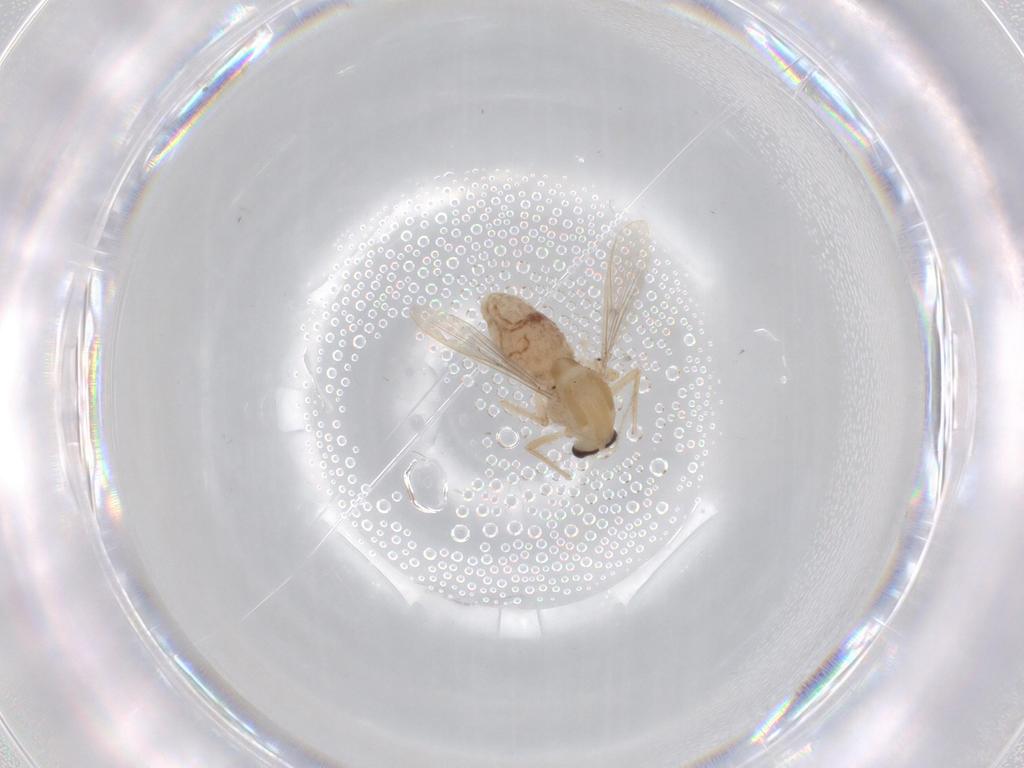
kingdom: Animalia
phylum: Arthropoda
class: Insecta
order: Diptera
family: Chironomidae
